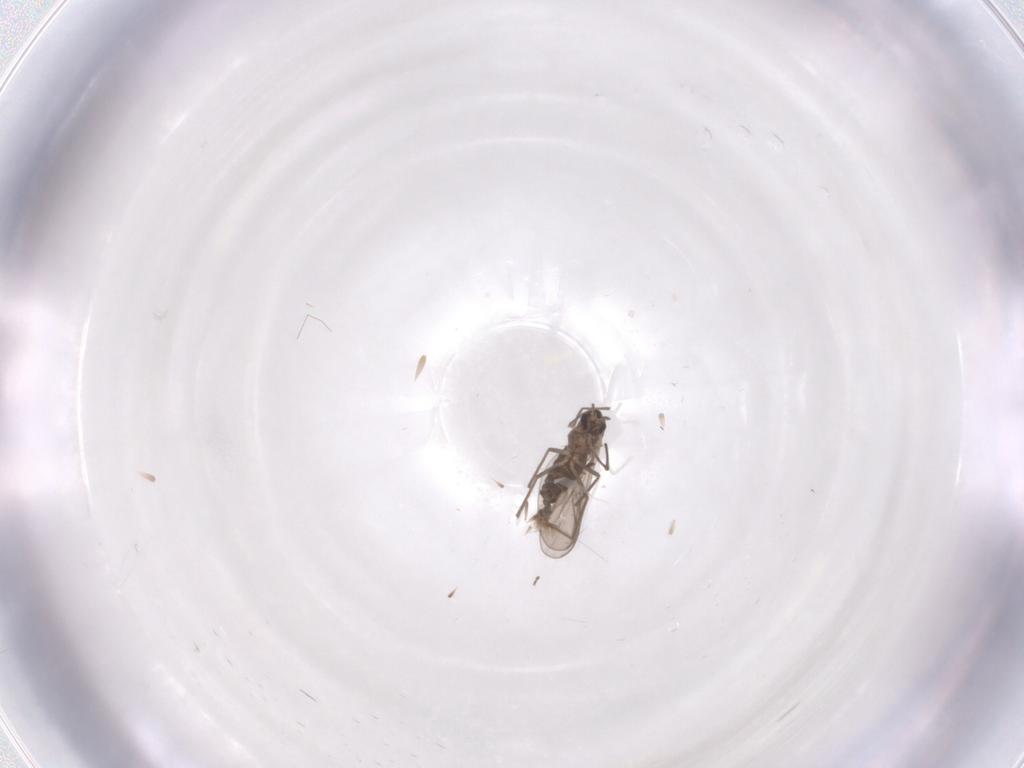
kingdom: Animalia
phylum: Arthropoda
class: Insecta
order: Diptera
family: Chironomidae
